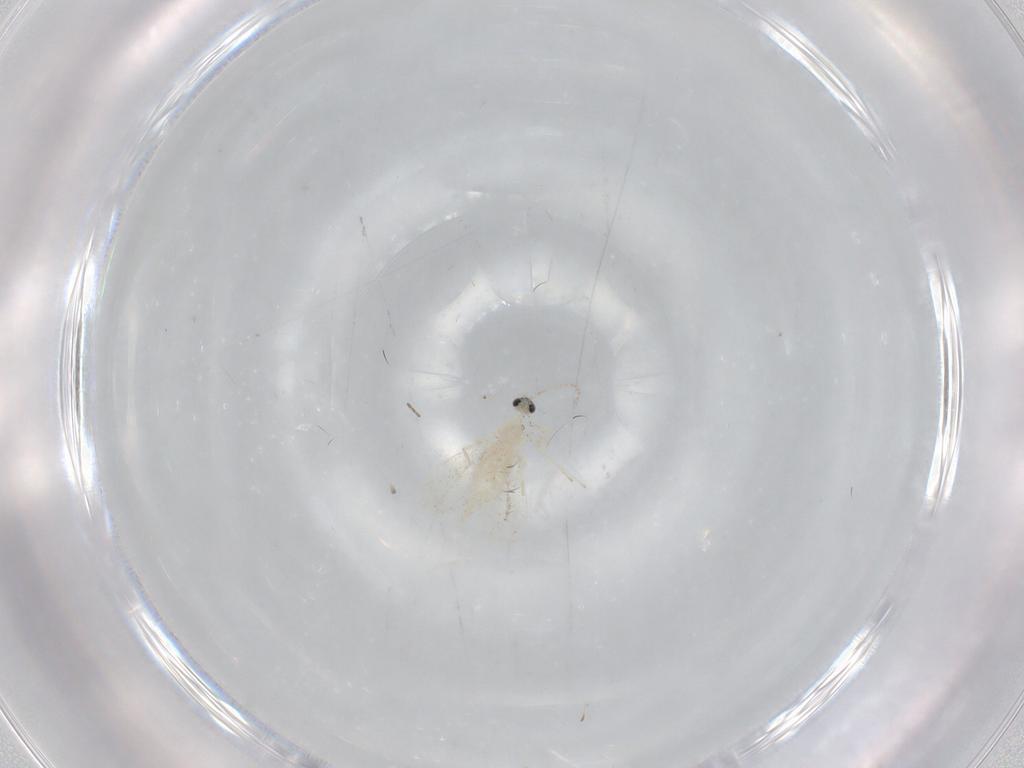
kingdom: Animalia
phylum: Arthropoda
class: Insecta
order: Diptera
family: Cecidomyiidae
